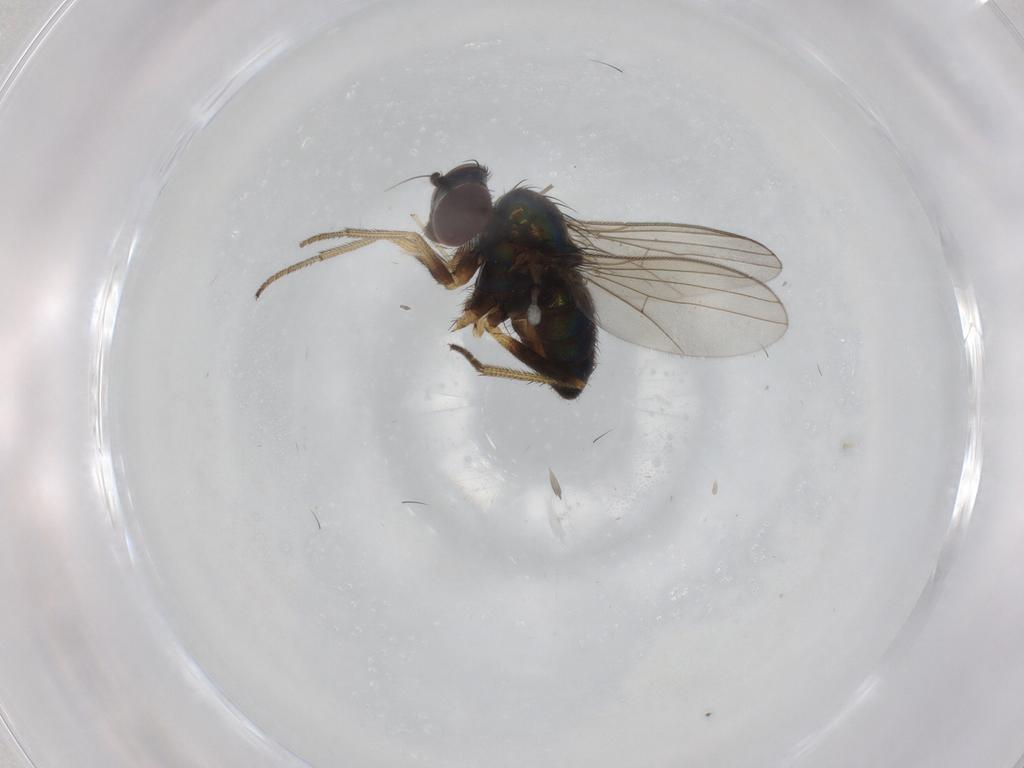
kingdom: Animalia
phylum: Arthropoda
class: Insecta
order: Diptera
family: Dolichopodidae
